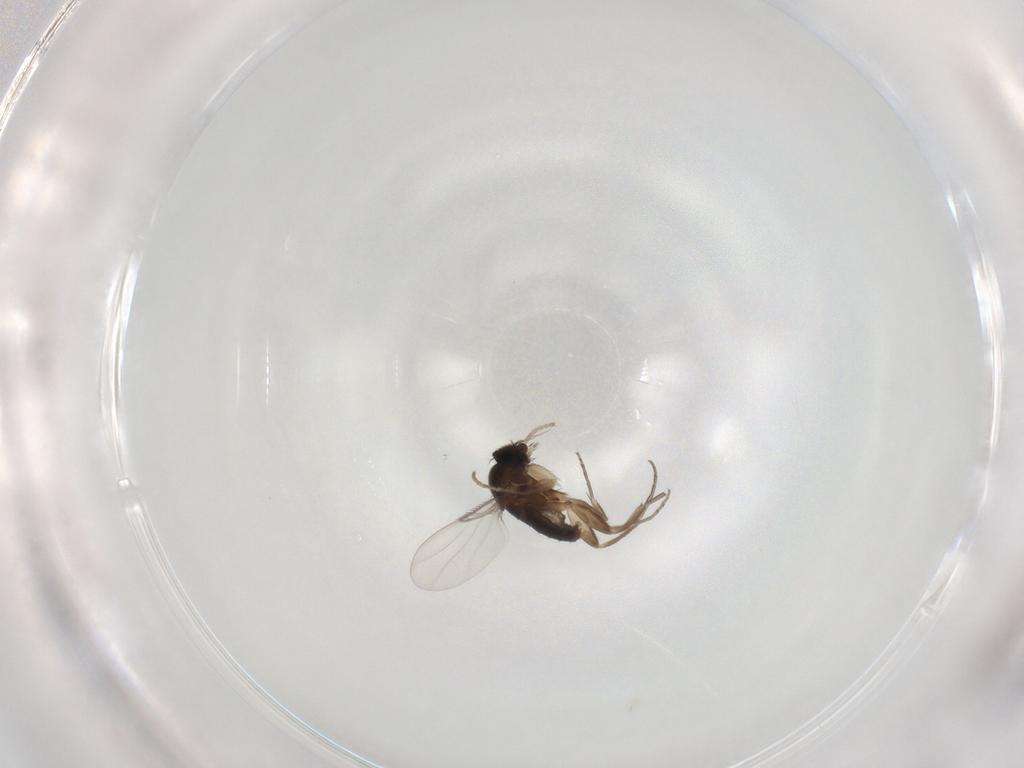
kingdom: Animalia
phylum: Arthropoda
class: Insecta
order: Diptera
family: Phoridae
